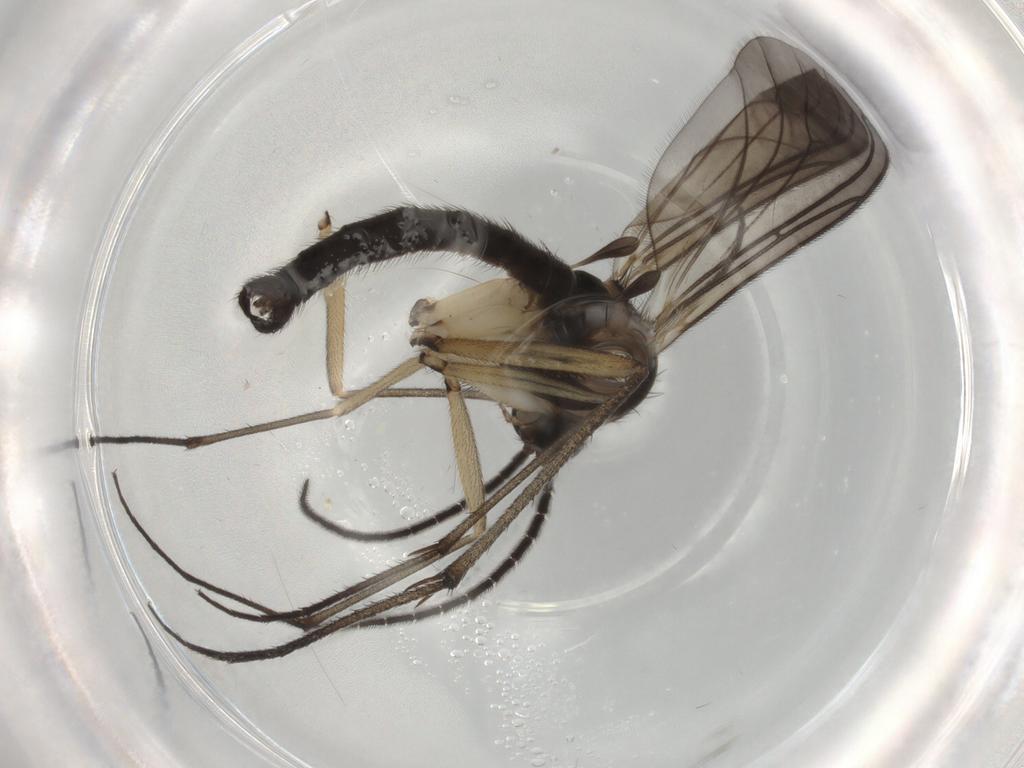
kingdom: Animalia
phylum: Arthropoda
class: Insecta
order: Diptera
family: Sciaridae
